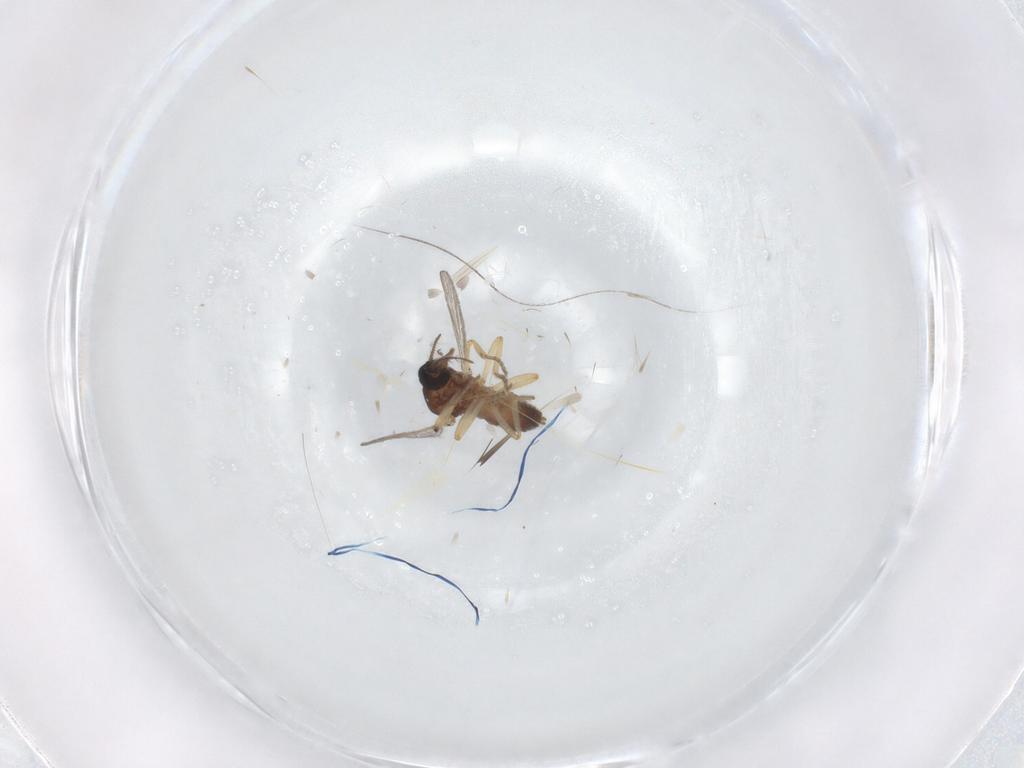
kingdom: Animalia
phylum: Arthropoda
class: Insecta
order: Diptera
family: Ceratopogonidae
